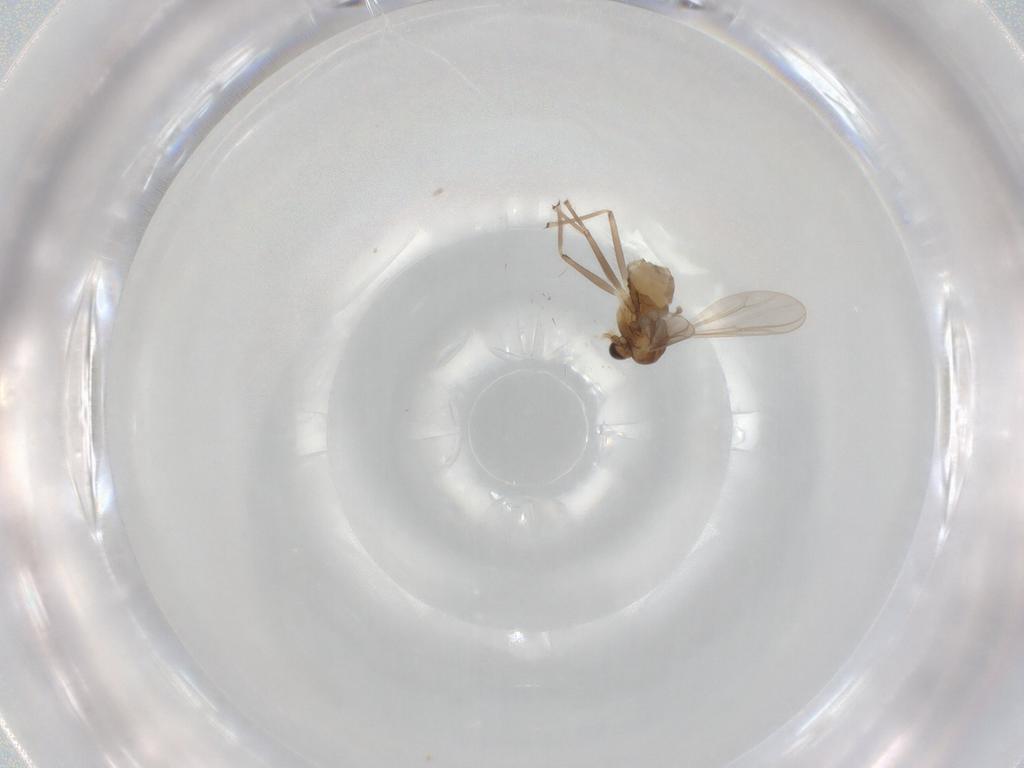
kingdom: Animalia
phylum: Arthropoda
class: Insecta
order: Diptera
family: Chironomidae
